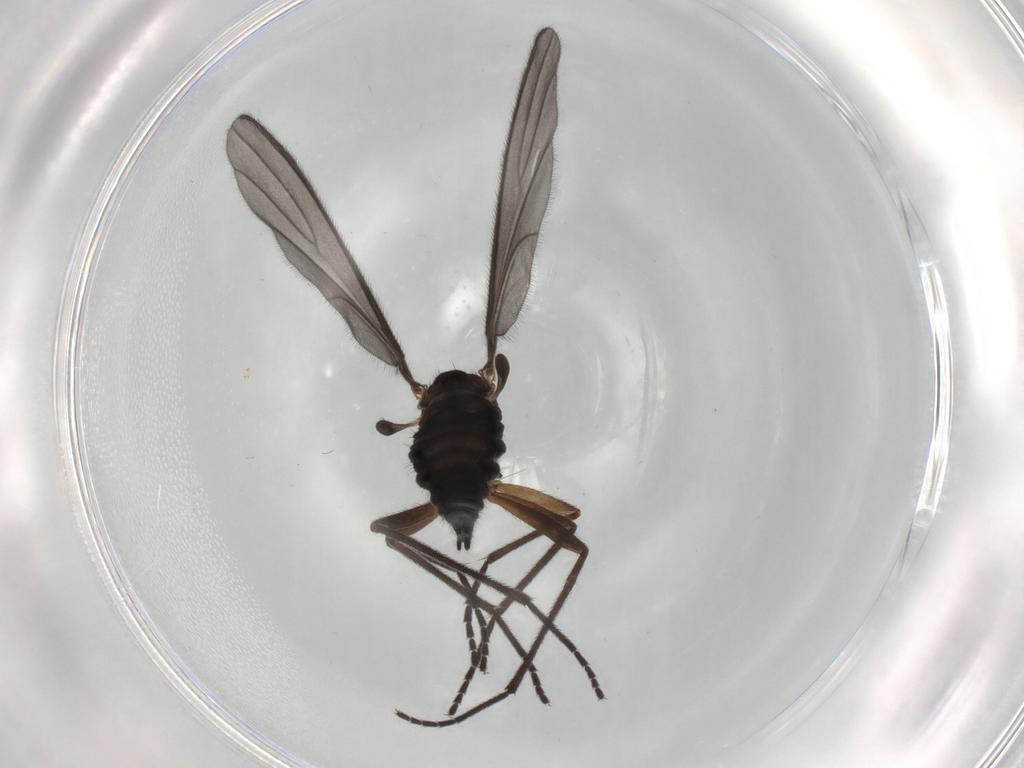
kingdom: Animalia
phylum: Arthropoda
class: Insecta
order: Diptera
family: Sciaridae
